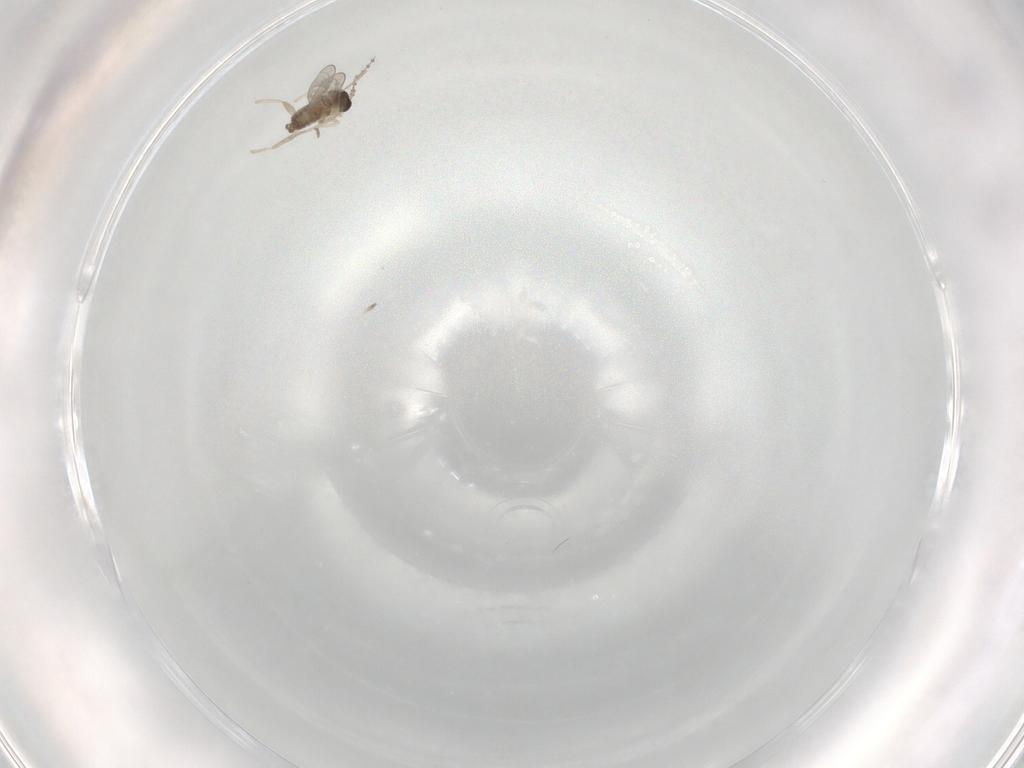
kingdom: Animalia
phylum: Arthropoda
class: Insecta
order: Diptera
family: Cecidomyiidae
